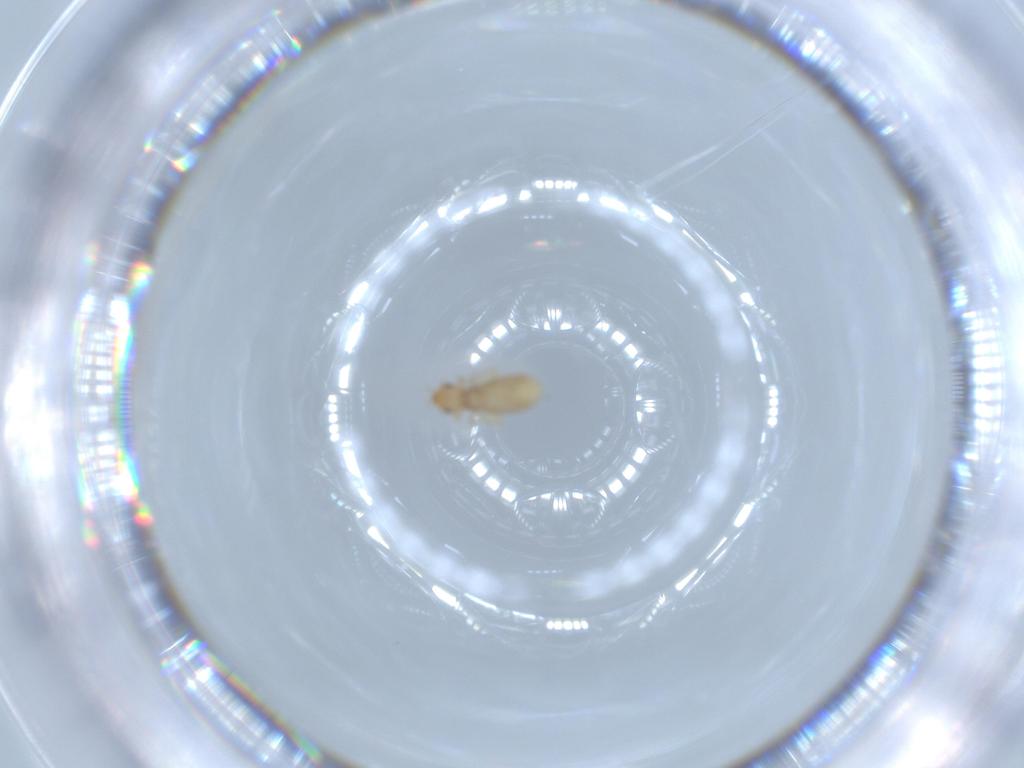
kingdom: Animalia
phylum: Arthropoda
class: Insecta
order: Psocodea
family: Liposcelididae
